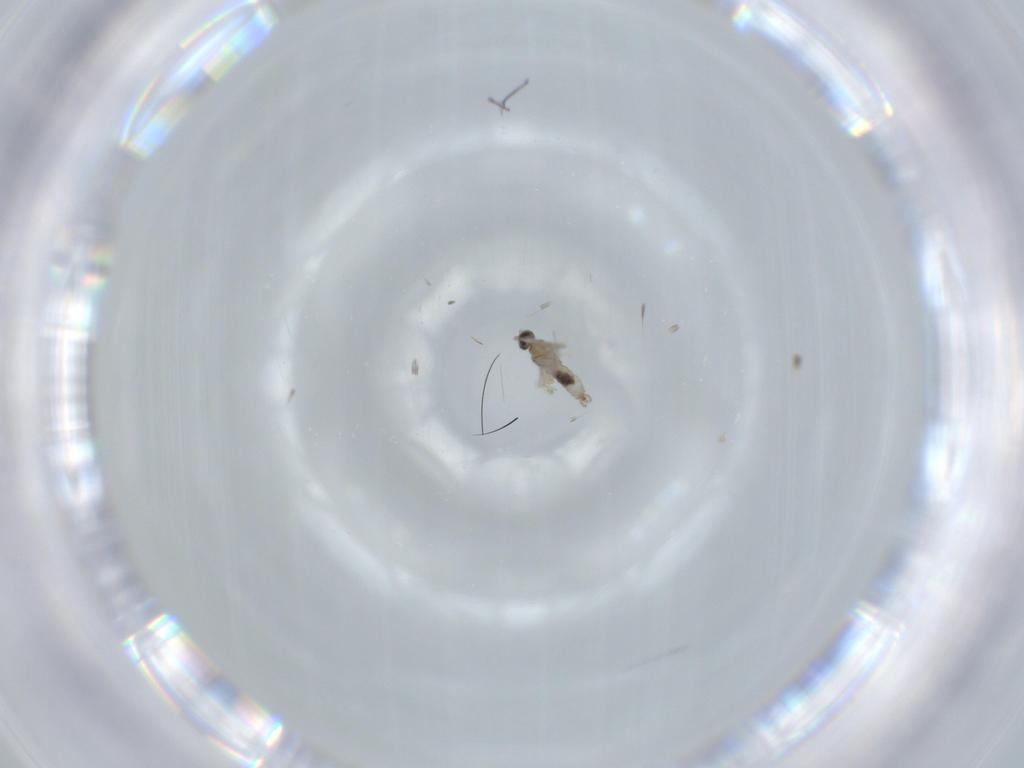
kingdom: Animalia
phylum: Arthropoda
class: Insecta
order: Diptera
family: Cecidomyiidae
